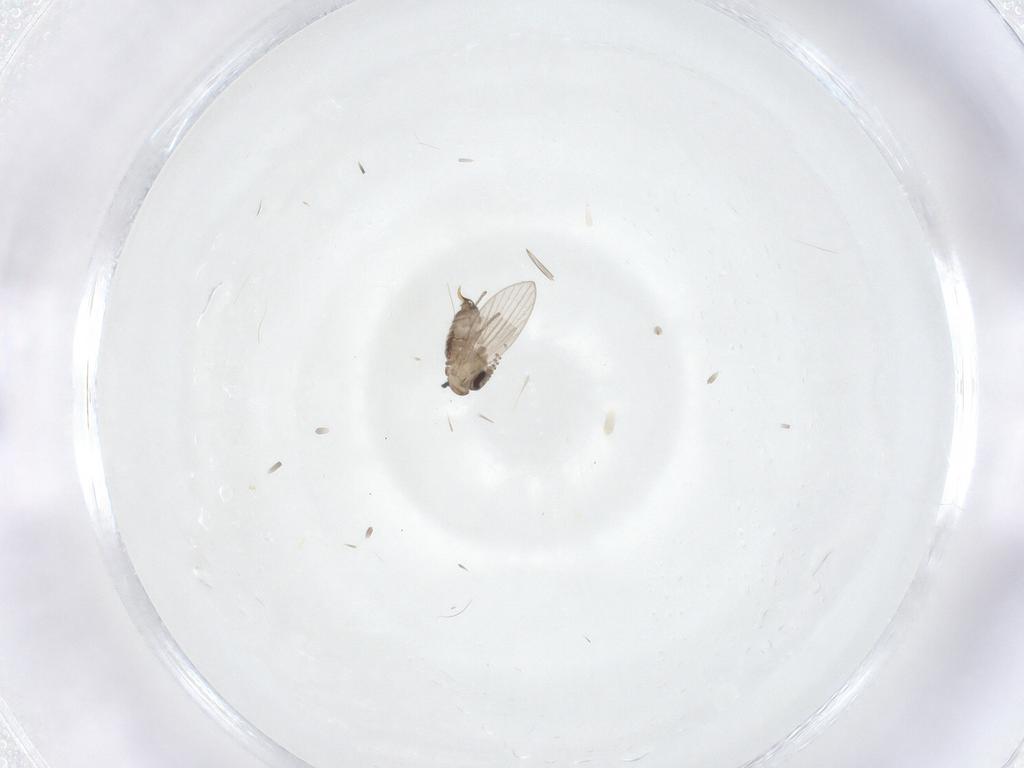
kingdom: Animalia
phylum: Arthropoda
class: Insecta
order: Diptera
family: Cecidomyiidae
